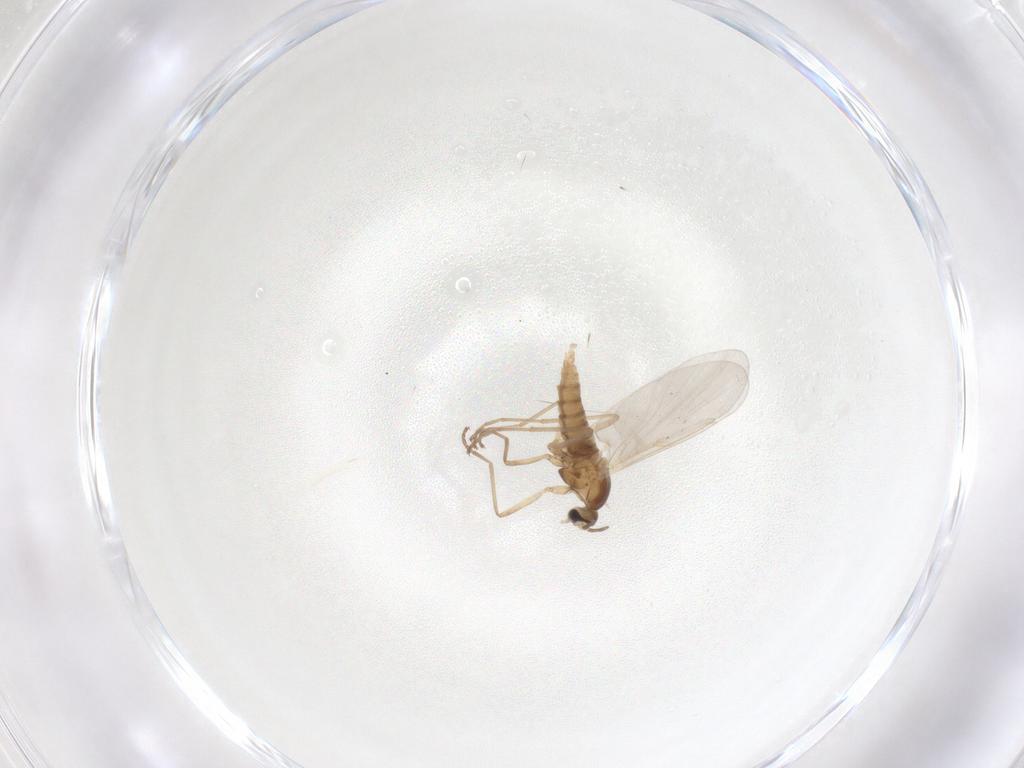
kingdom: Animalia
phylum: Arthropoda
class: Insecta
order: Diptera
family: Cecidomyiidae
